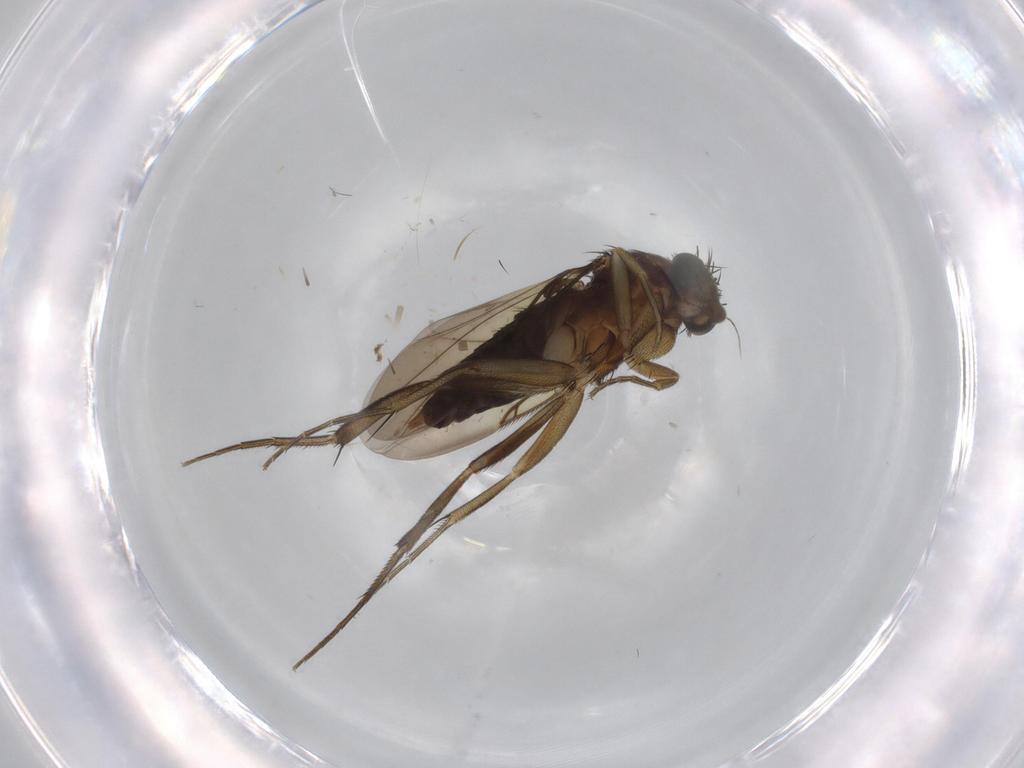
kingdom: Animalia
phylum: Arthropoda
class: Insecta
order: Diptera
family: Phoridae
